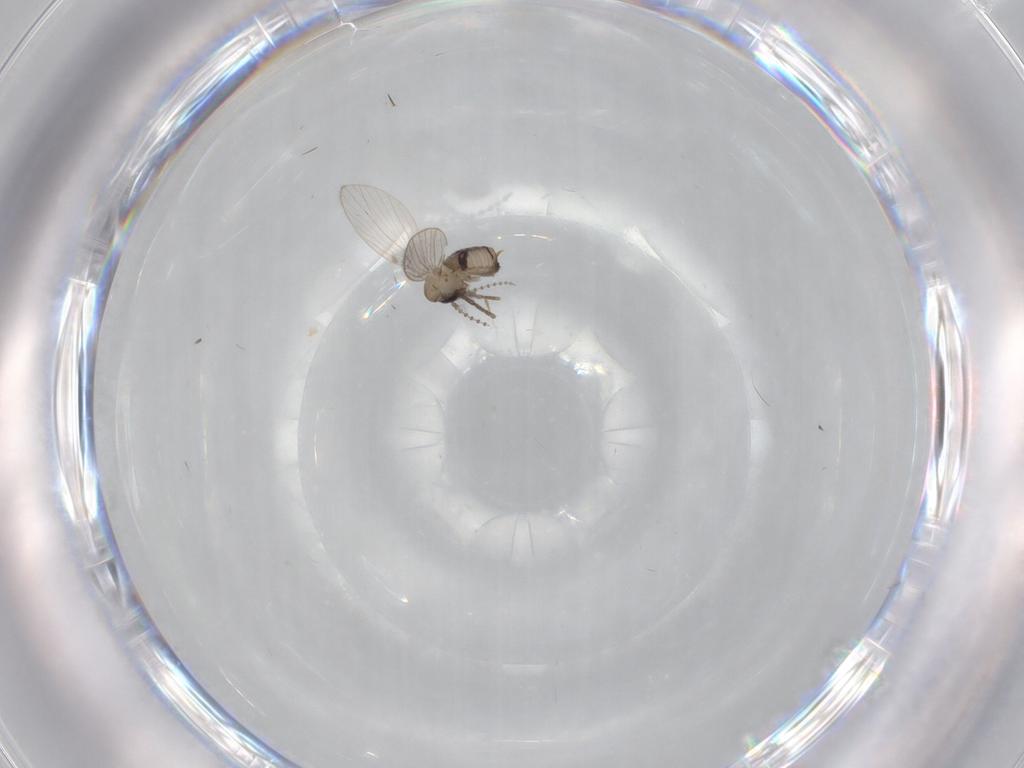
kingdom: Animalia
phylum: Arthropoda
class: Insecta
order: Diptera
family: Psychodidae
